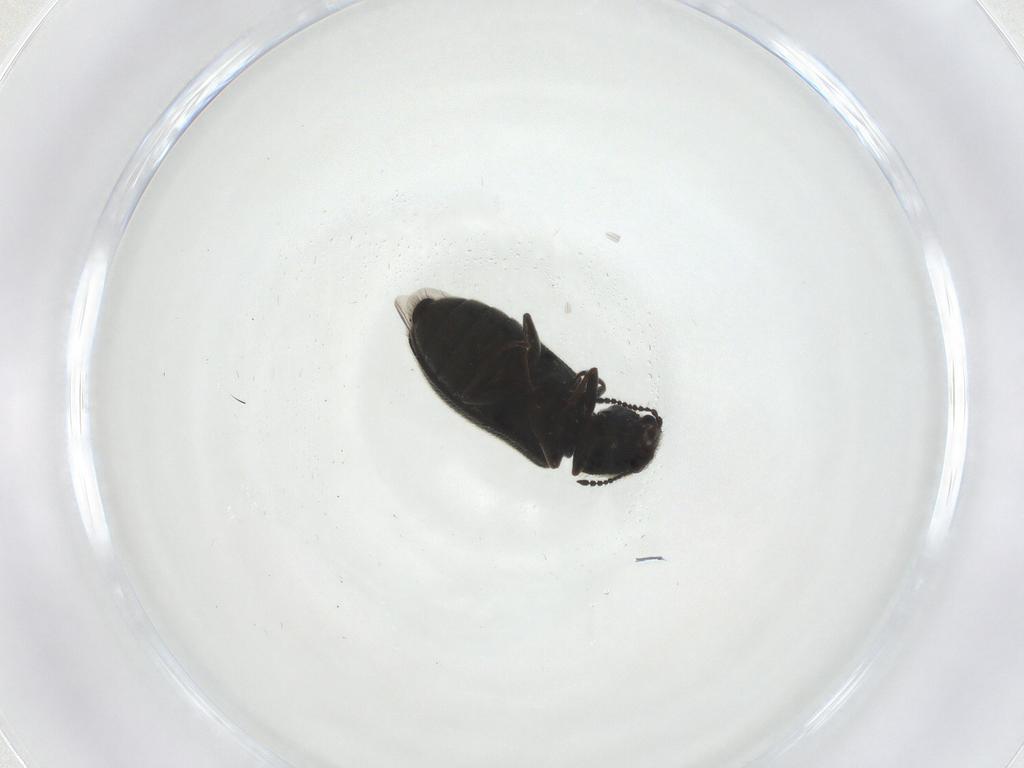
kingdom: Animalia
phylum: Arthropoda
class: Insecta
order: Coleoptera
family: Melyridae
